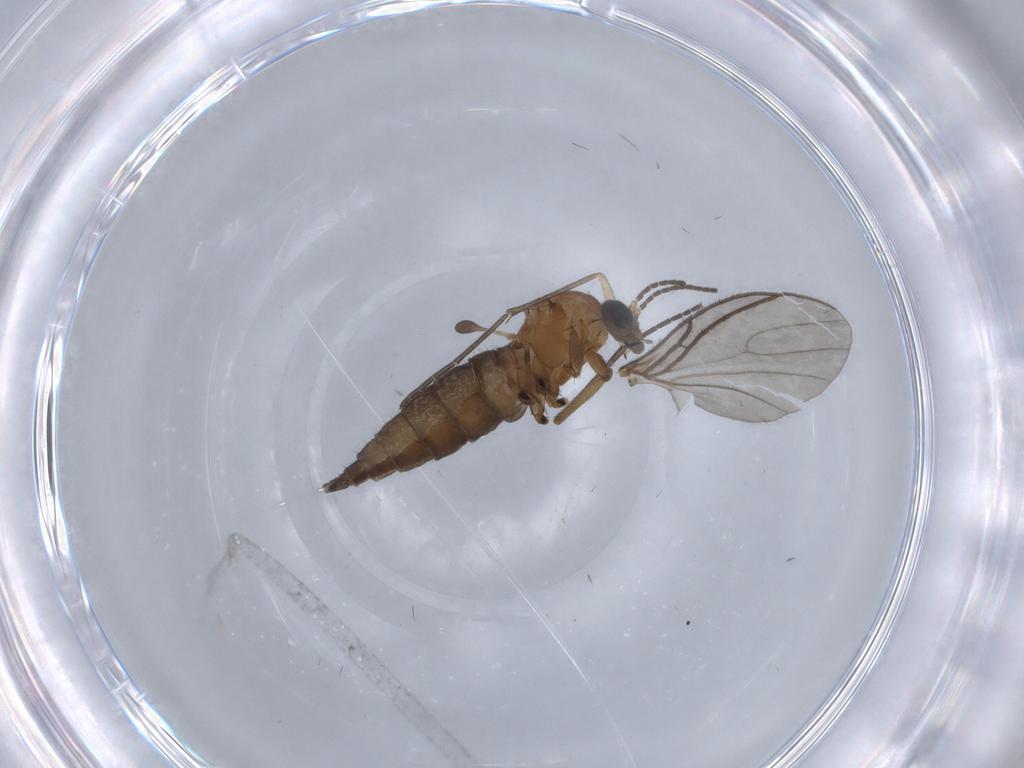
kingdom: Animalia
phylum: Arthropoda
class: Insecta
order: Diptera
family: Sciaridae
